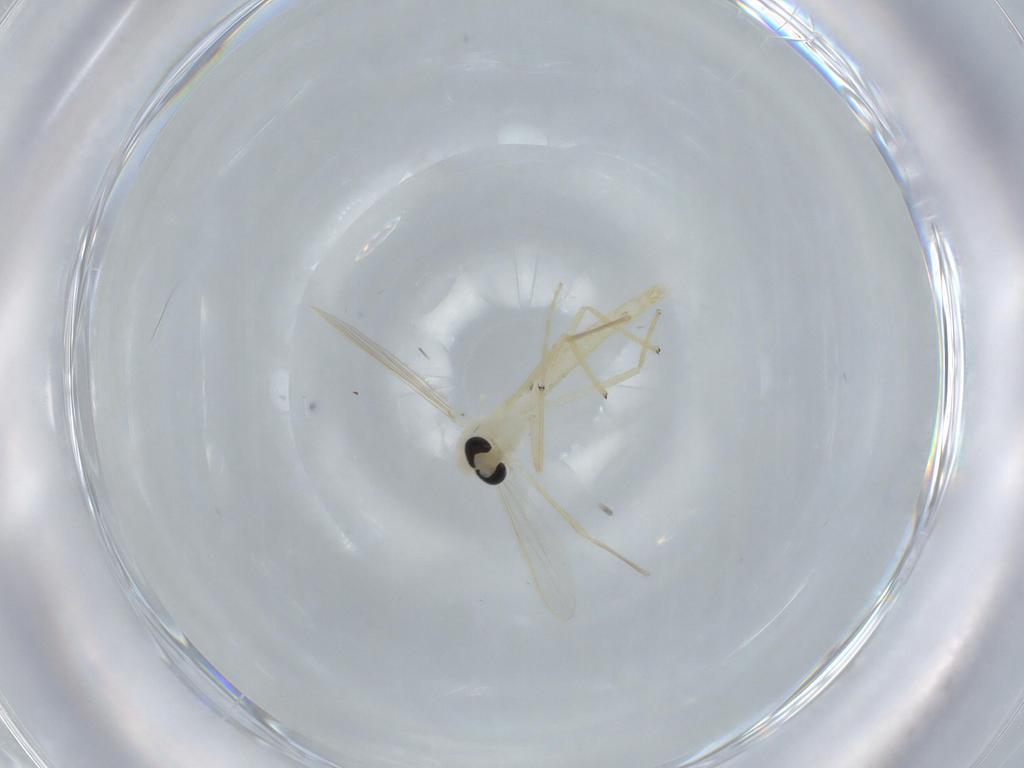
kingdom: Animalia
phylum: Arthropoda
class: Insecta
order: Diptera
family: Chironomidae
